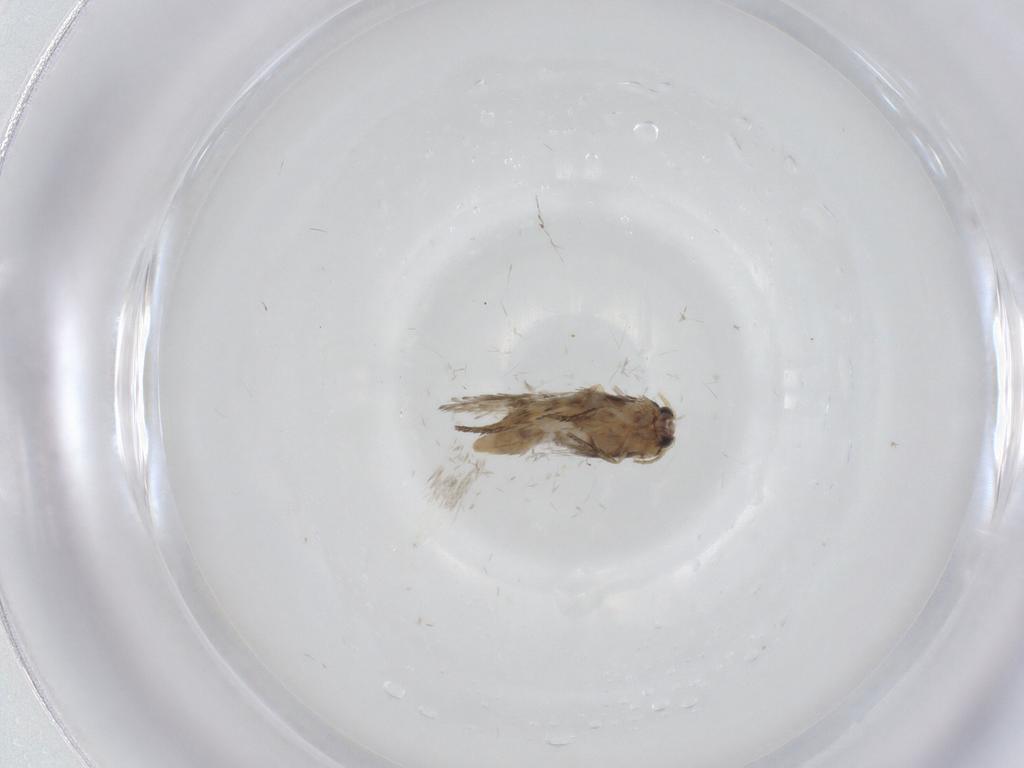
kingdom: Animalia
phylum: Arthropoda
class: Insecta
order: Lepidoptera
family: Nepticulidae
